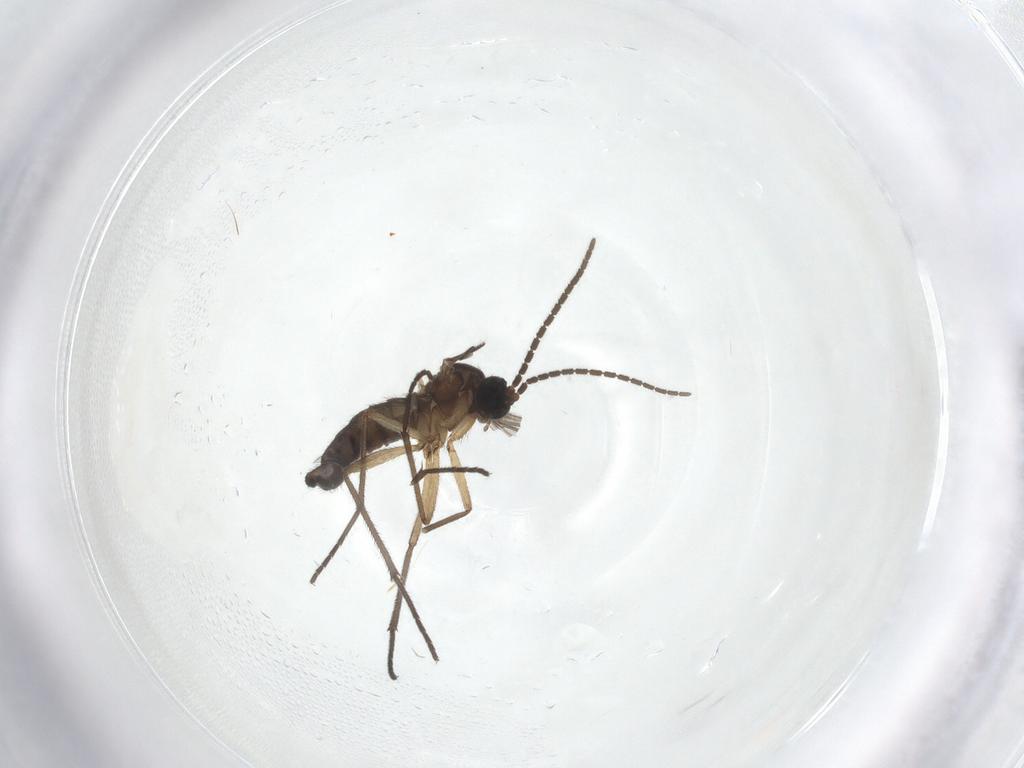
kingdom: Animalia
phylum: Arthropoda
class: Insecta
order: Diptera
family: Sciaridae
